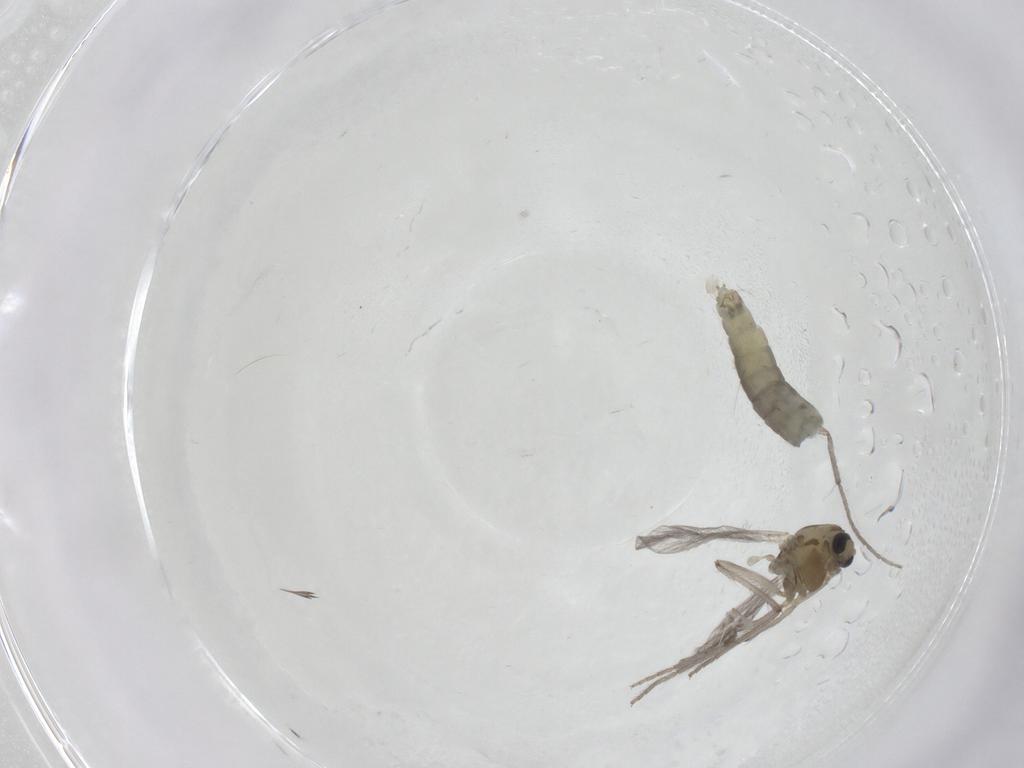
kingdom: Animalia
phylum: Arthropoda
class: Insecta
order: Diptera
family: Chironomidae
